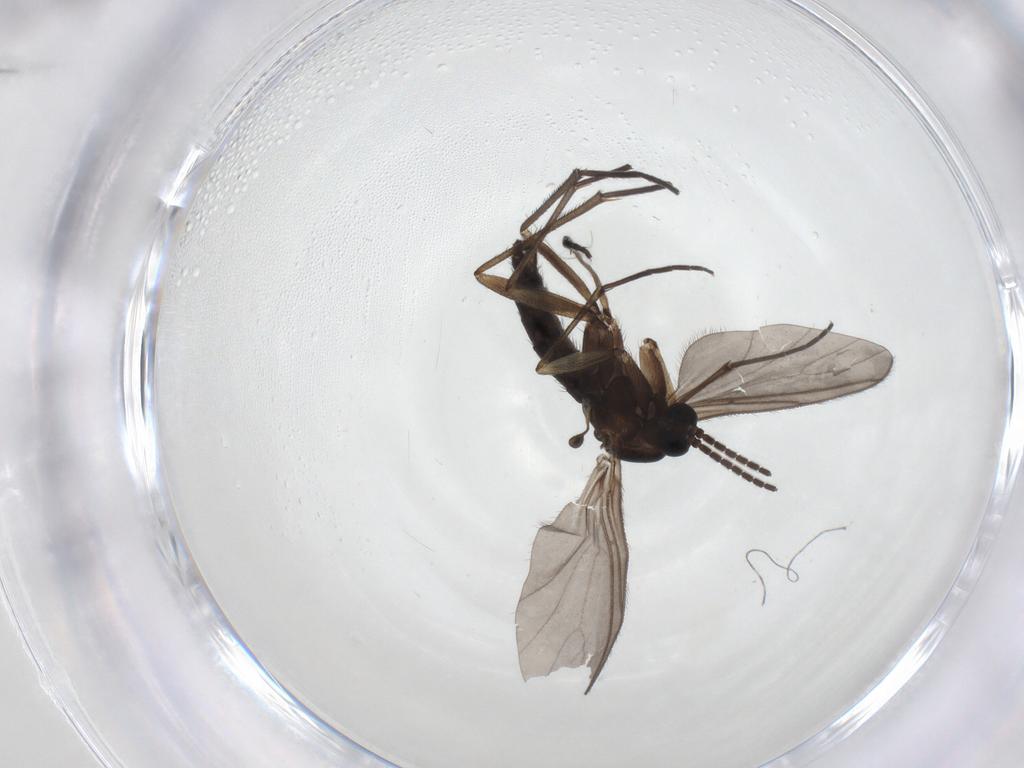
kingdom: Animalia
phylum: Arthropoda
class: Insecta
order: Diptera
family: Sciaridae
